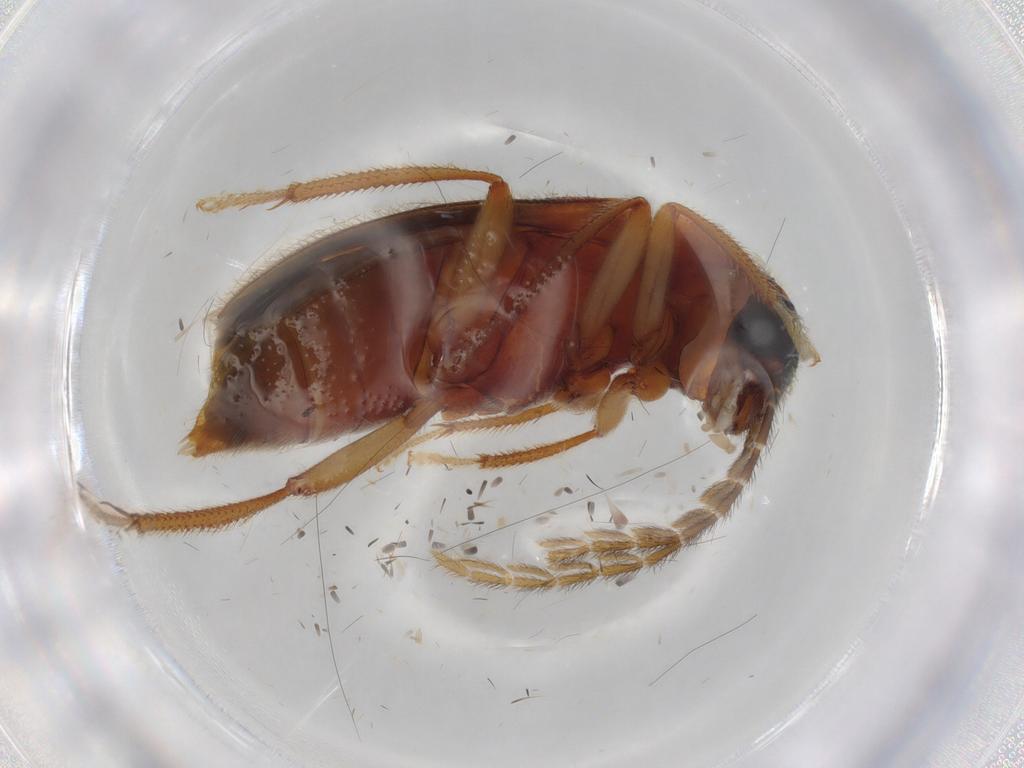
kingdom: Animalia
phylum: Arthropoda
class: Insecta
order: Coleoptera
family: Ptilodactylidae
